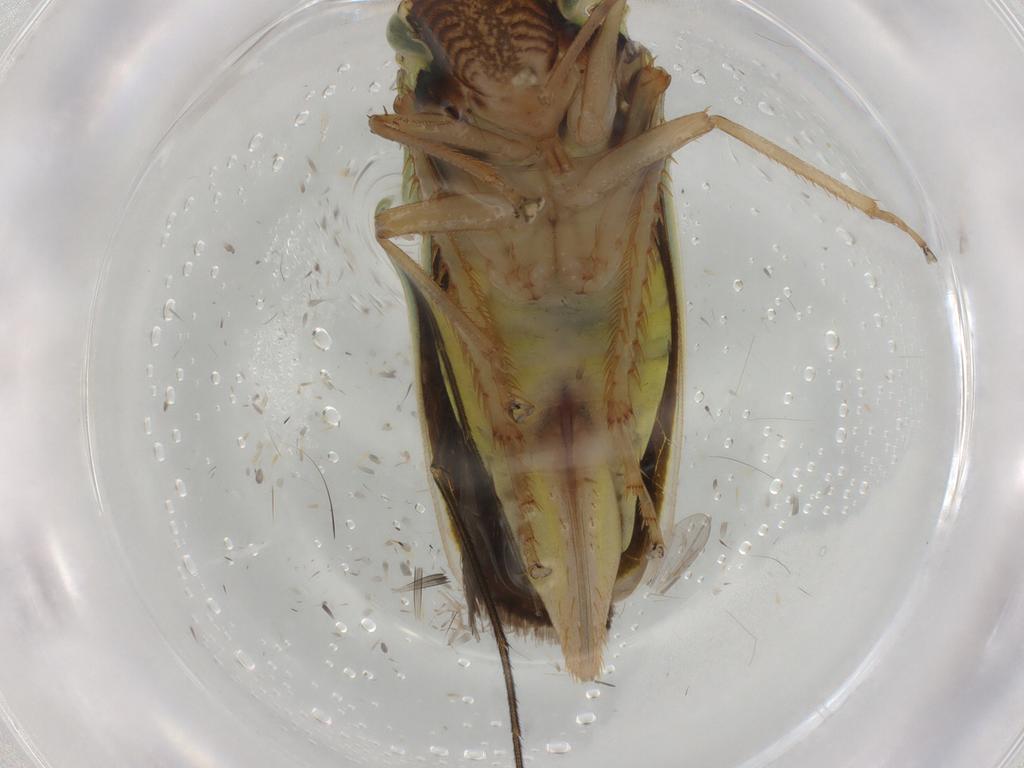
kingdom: Animalia
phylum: Arthropoda
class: Insecta
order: Hemiptera
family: Cicadellidae
